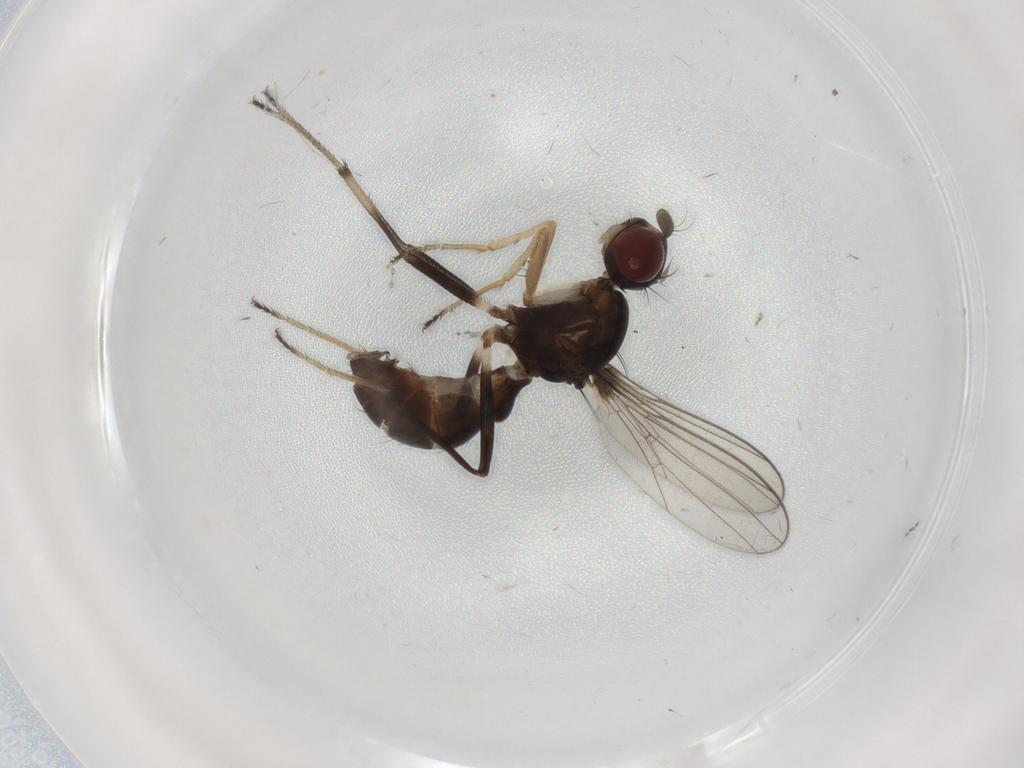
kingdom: Animalia
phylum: Arthropoda
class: Insecta
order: Diptera
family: Sepsidae
